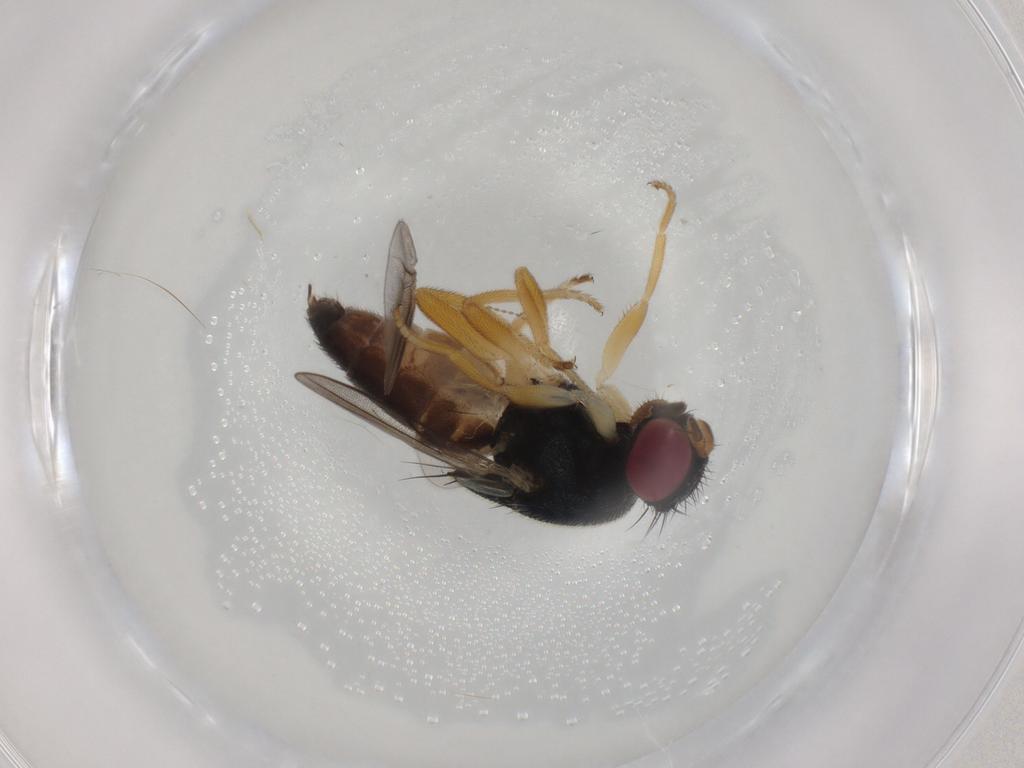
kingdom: Animalia
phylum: Arthropoda
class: Insecta
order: Diptera
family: Chloropidae
